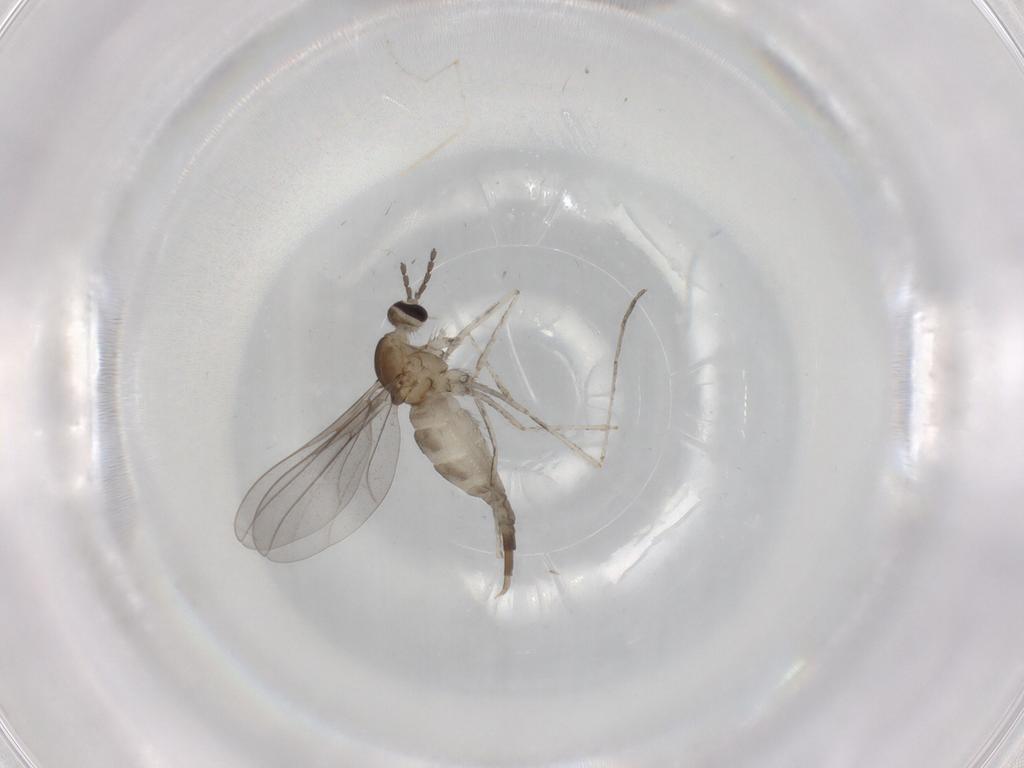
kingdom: Animalia
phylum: Arthropoda
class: Insecta
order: Diptera
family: Cecidomyiidae
